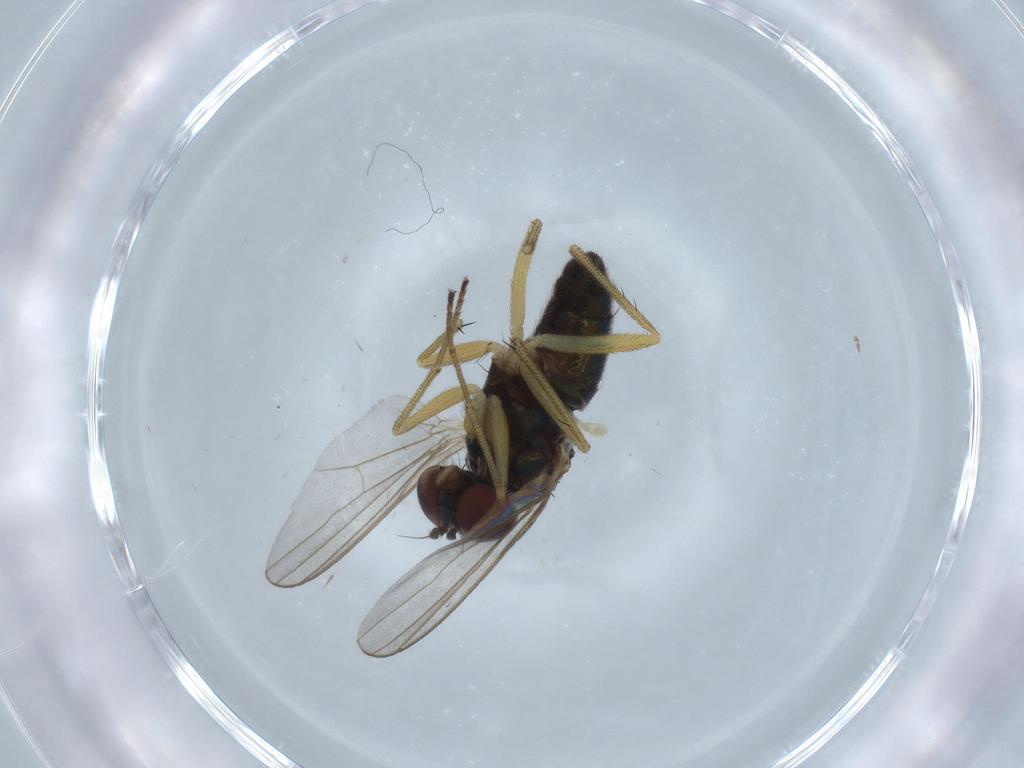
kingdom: Animalia
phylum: Arthropoda
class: Insecta
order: Diptera
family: Dolichopodidae
